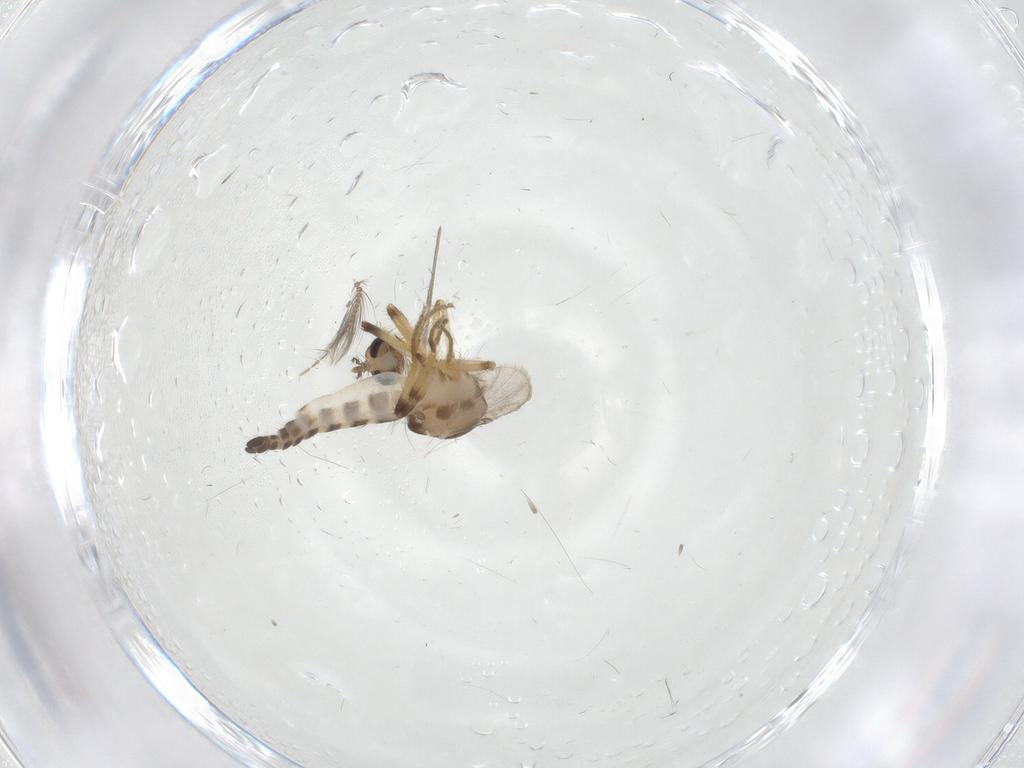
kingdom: Animalia
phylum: Arthropoda
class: Insecta
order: Diptera
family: Ceratopogonidae
